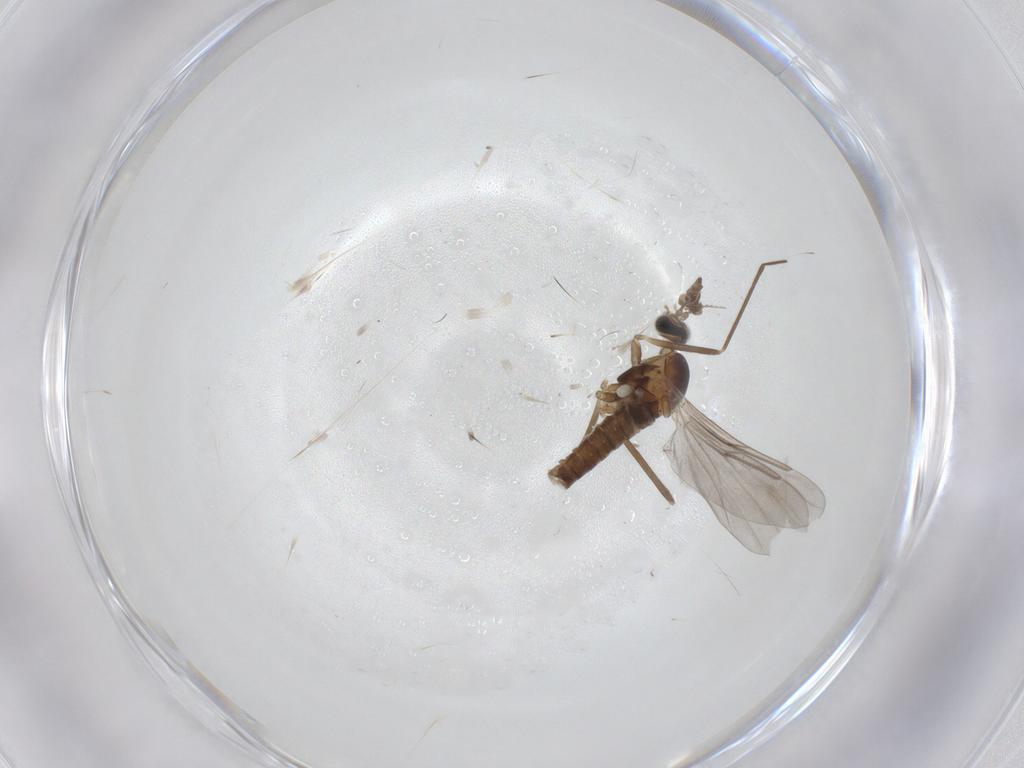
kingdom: Animalia
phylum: Arthropoda
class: Insecta
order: Diptera
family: Cecidomyiidae
